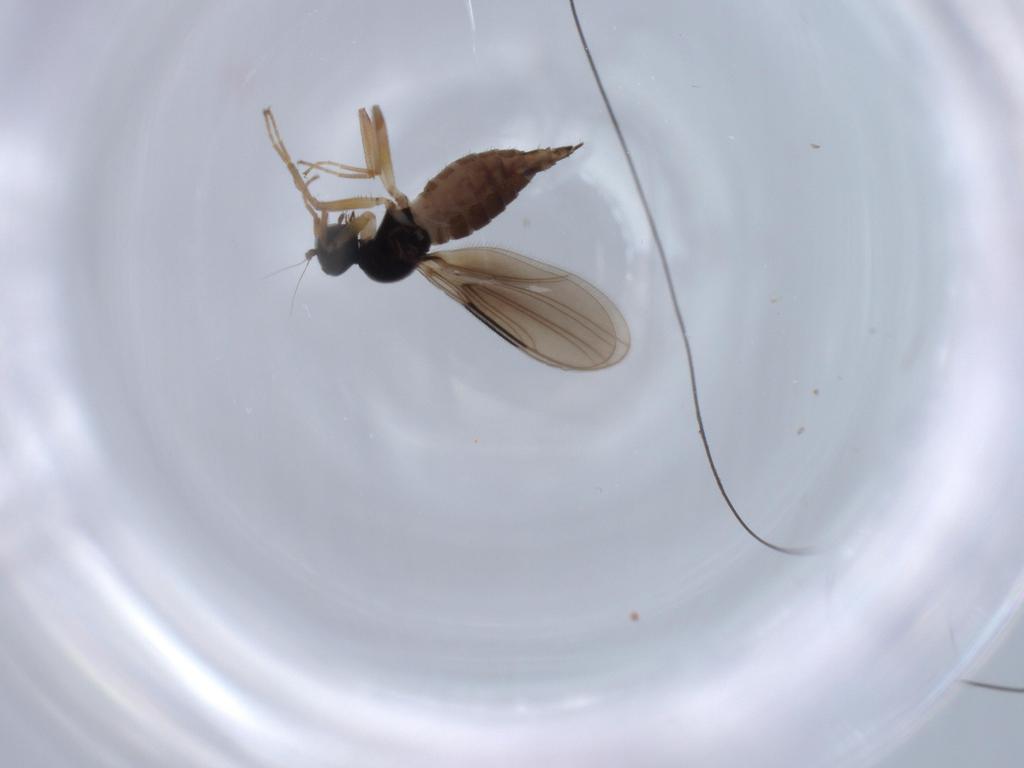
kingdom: Animalia
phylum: Arthropoda
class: Insecta
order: Diptera
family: Hybotidae
